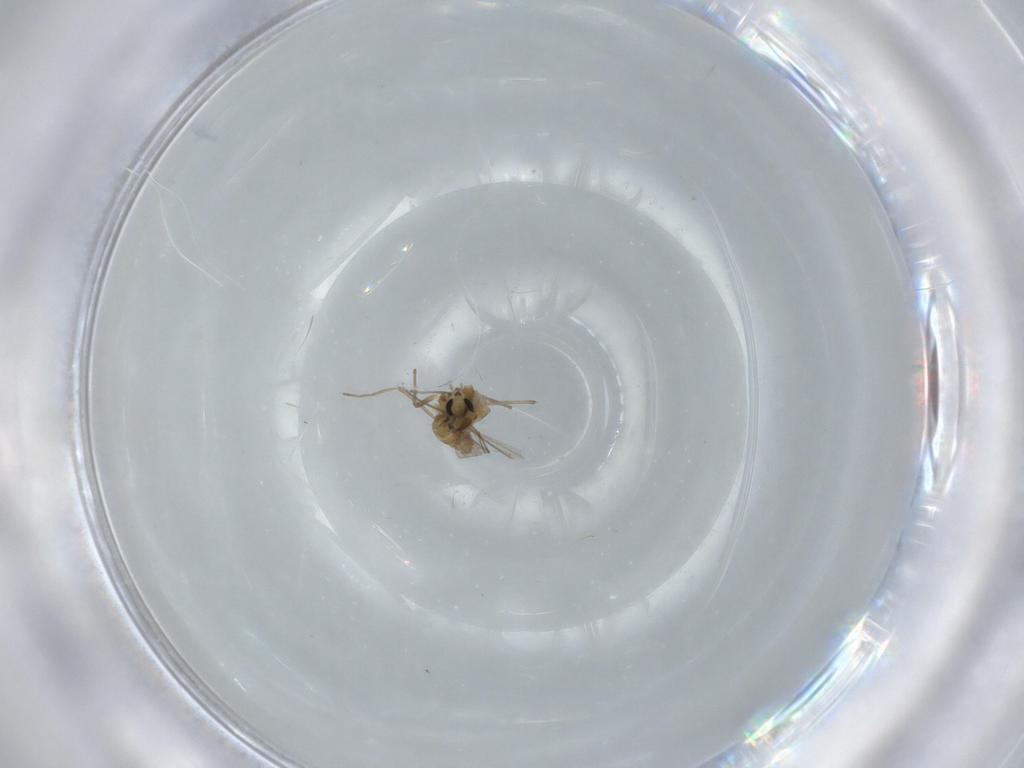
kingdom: Animalia
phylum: Arthropoda
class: Insecta
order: Diptera
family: Chironomidae
